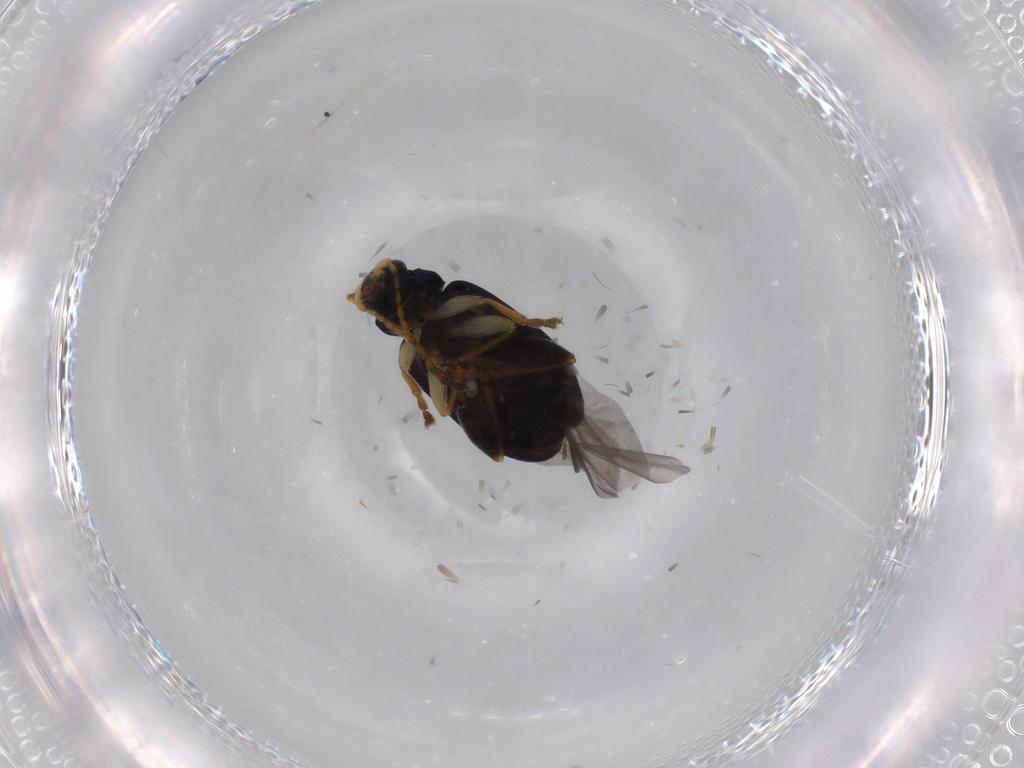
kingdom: Animalia
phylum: Arthropoda
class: Insecta
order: Coleoptera
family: Chrysomelidae
